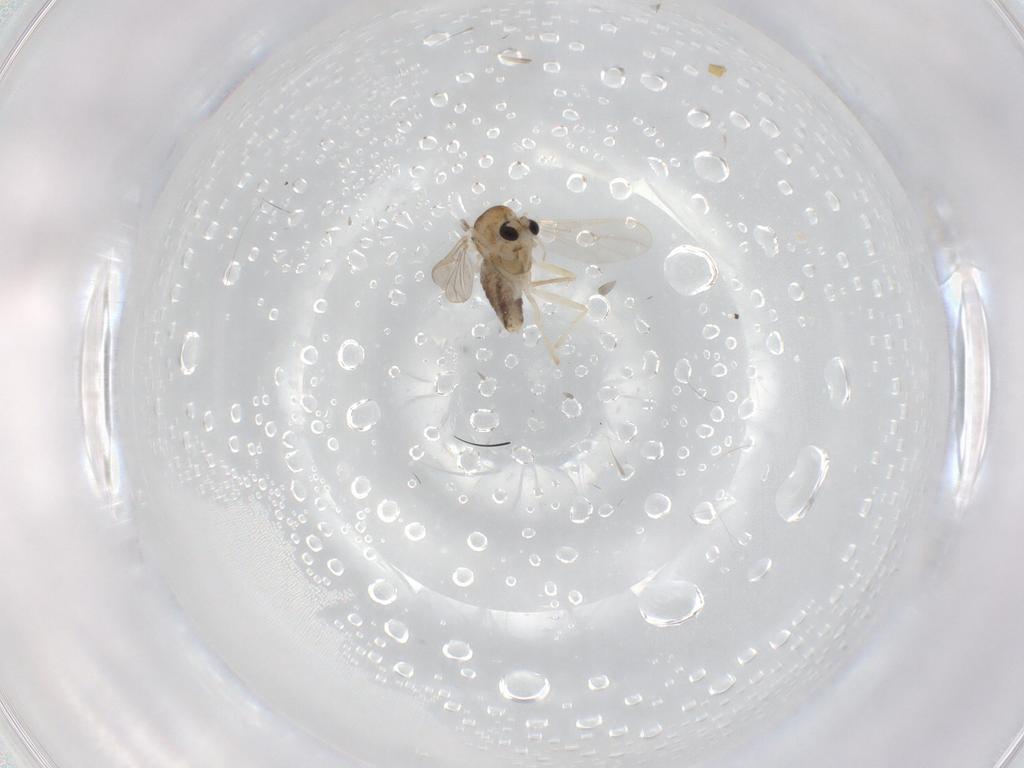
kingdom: Animalia
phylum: Arthropoda
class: Insecta
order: Diptera
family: Chironomidae
